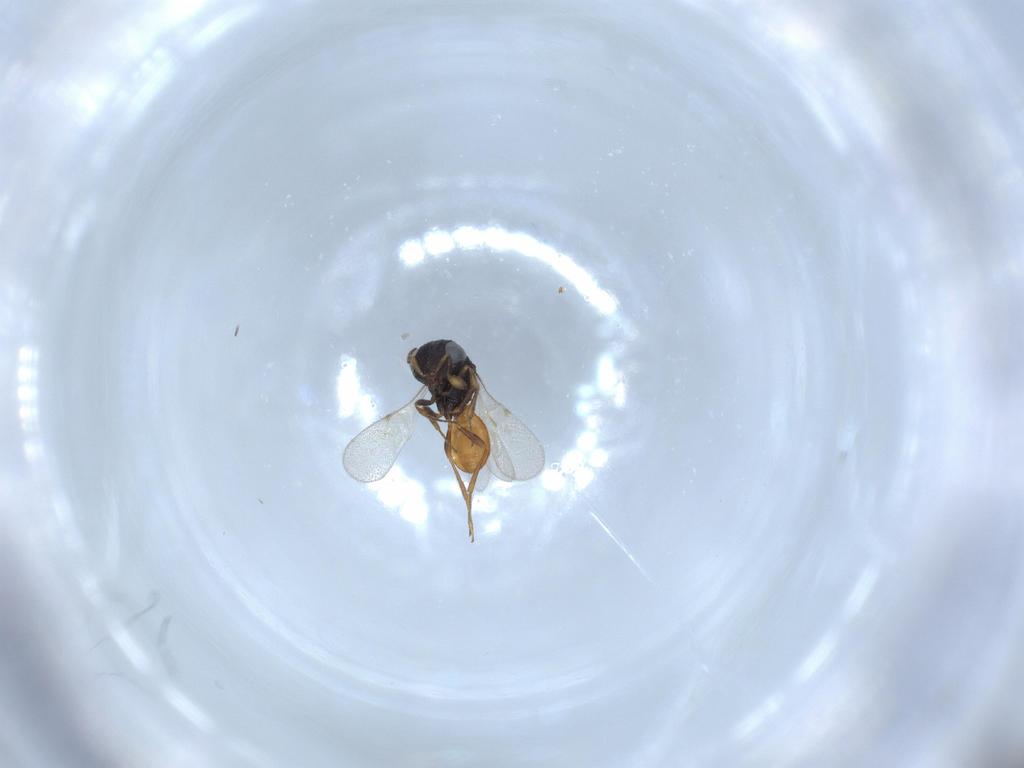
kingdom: Animalia
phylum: Arthropoda
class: Insecta
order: Hymenoptera
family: Scelionidae
